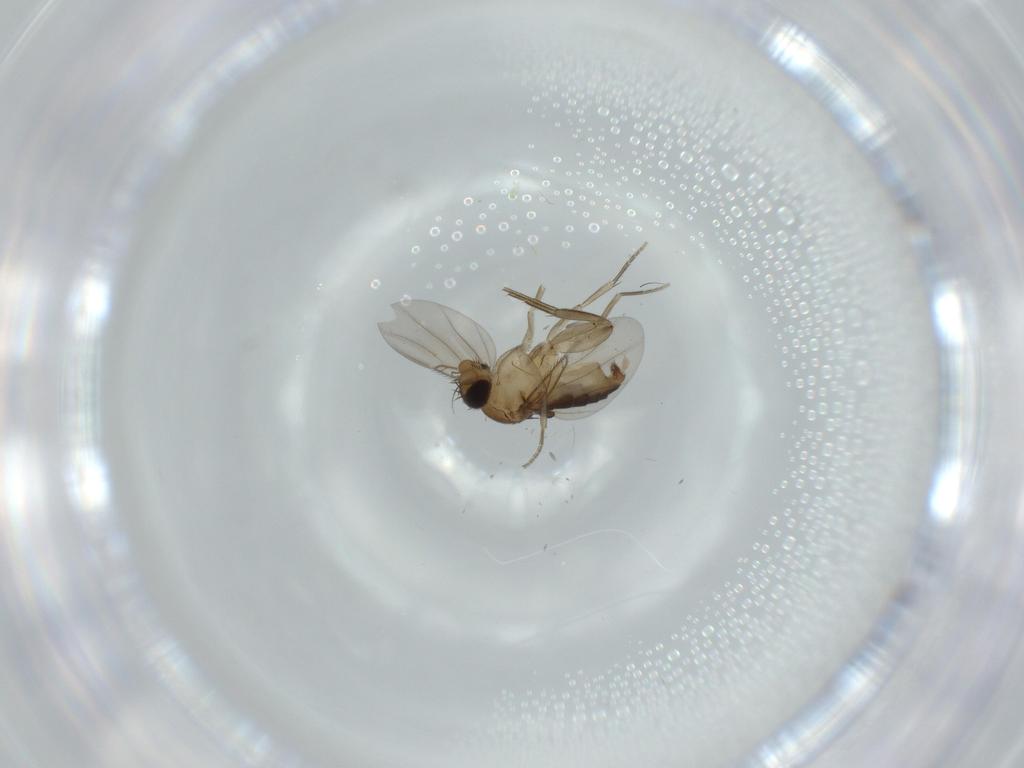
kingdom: Animalia
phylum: Arthropoda
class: Insecta
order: Diptera
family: Phoridae
